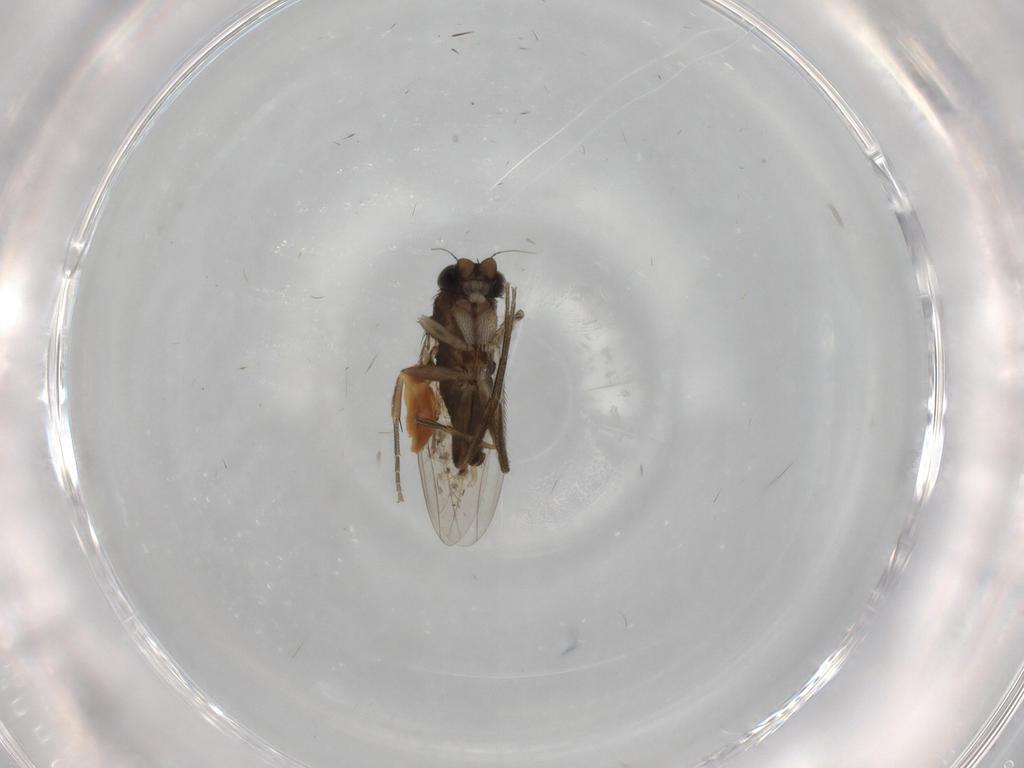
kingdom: Animalia
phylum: Arthropoda
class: Insecta
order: Diptera
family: Phoridae
